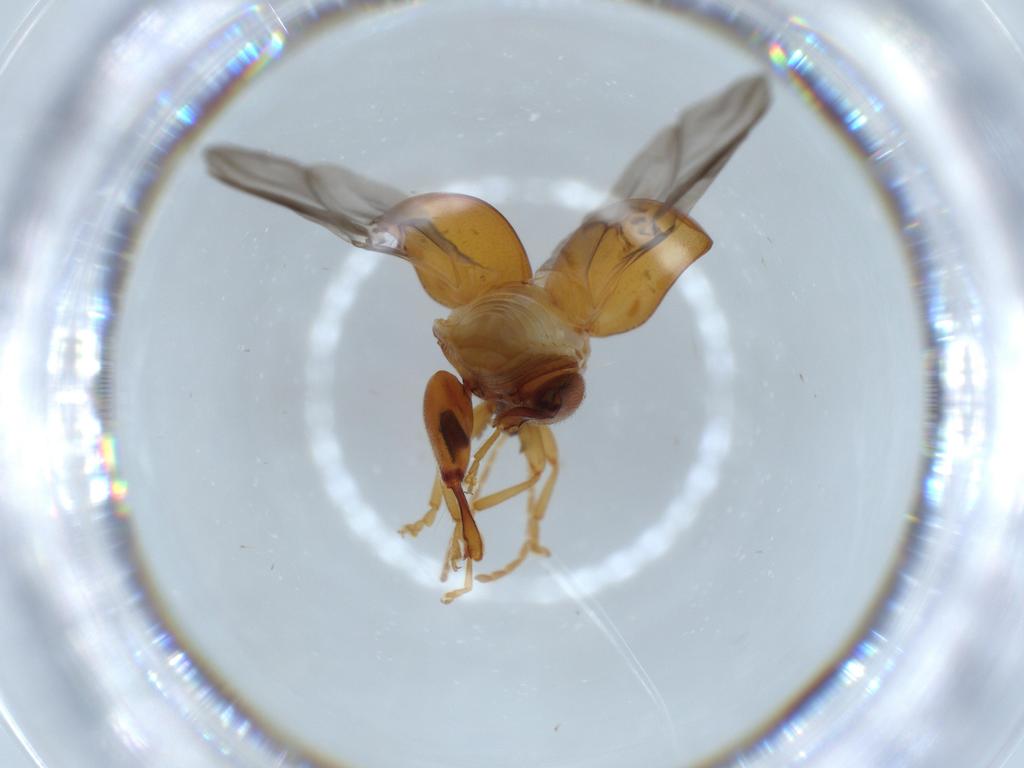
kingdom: Animalia
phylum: Arthropoda
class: Insecta
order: Coleoptera
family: Chrysomelidae
